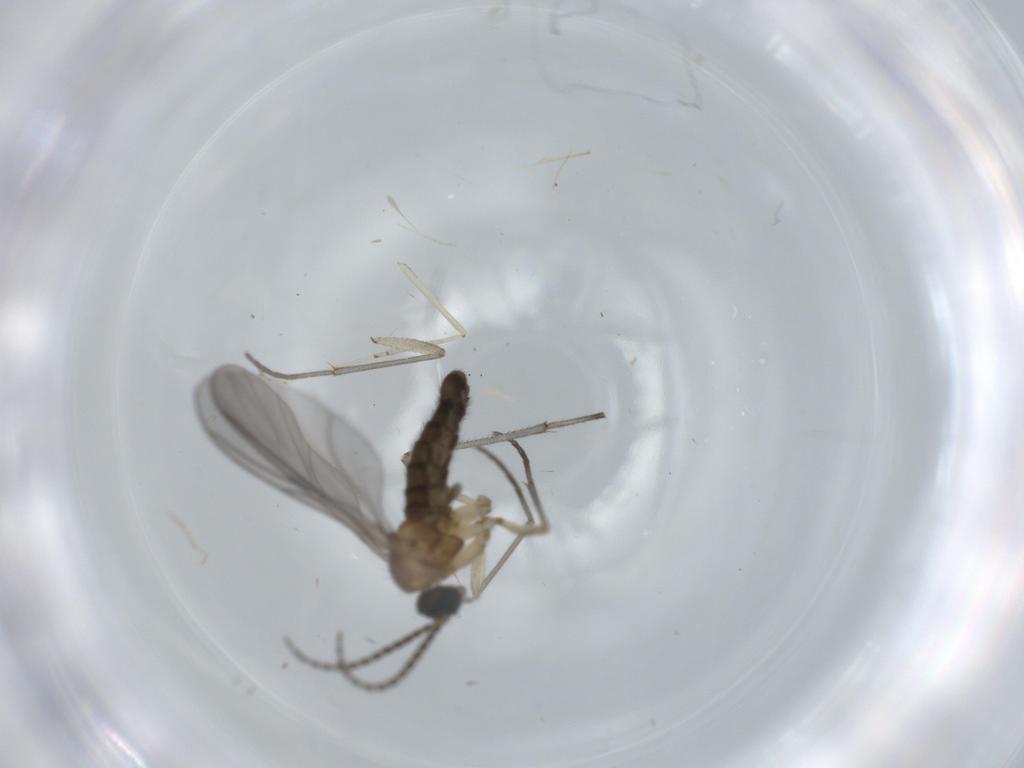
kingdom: Animalia
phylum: Arthropoda
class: Insecta
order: Diptera
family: Sciaridae
